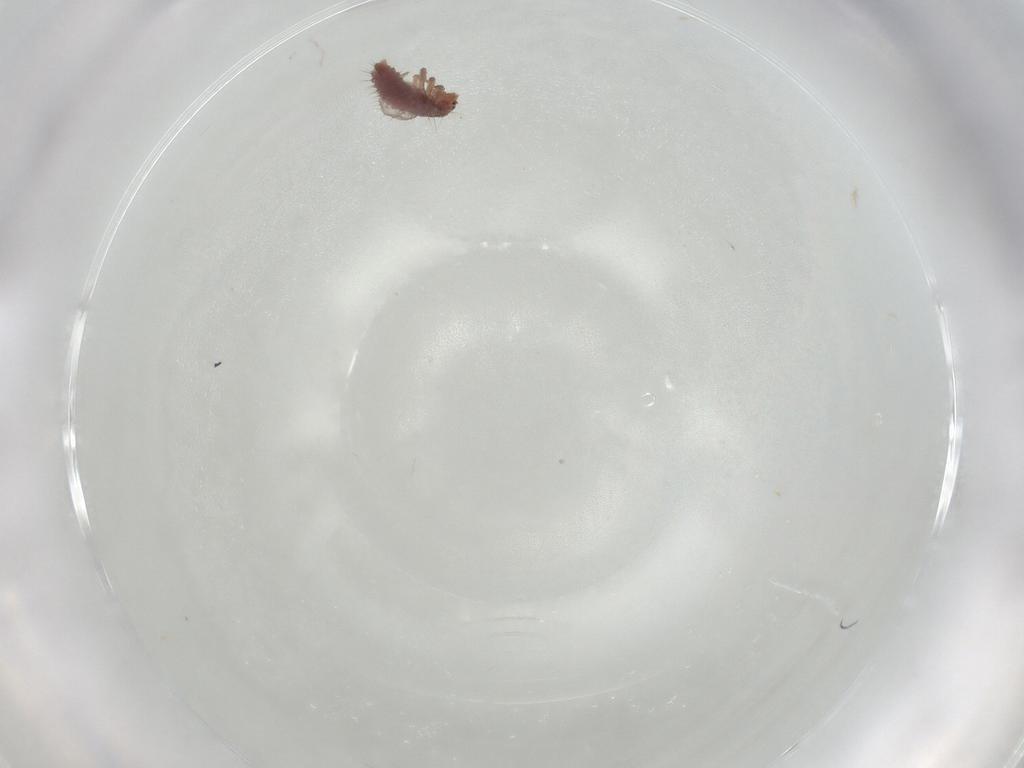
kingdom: Animalia
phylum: Arthropoda
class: Insecta
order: Coleoptera
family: Coccinellidae
